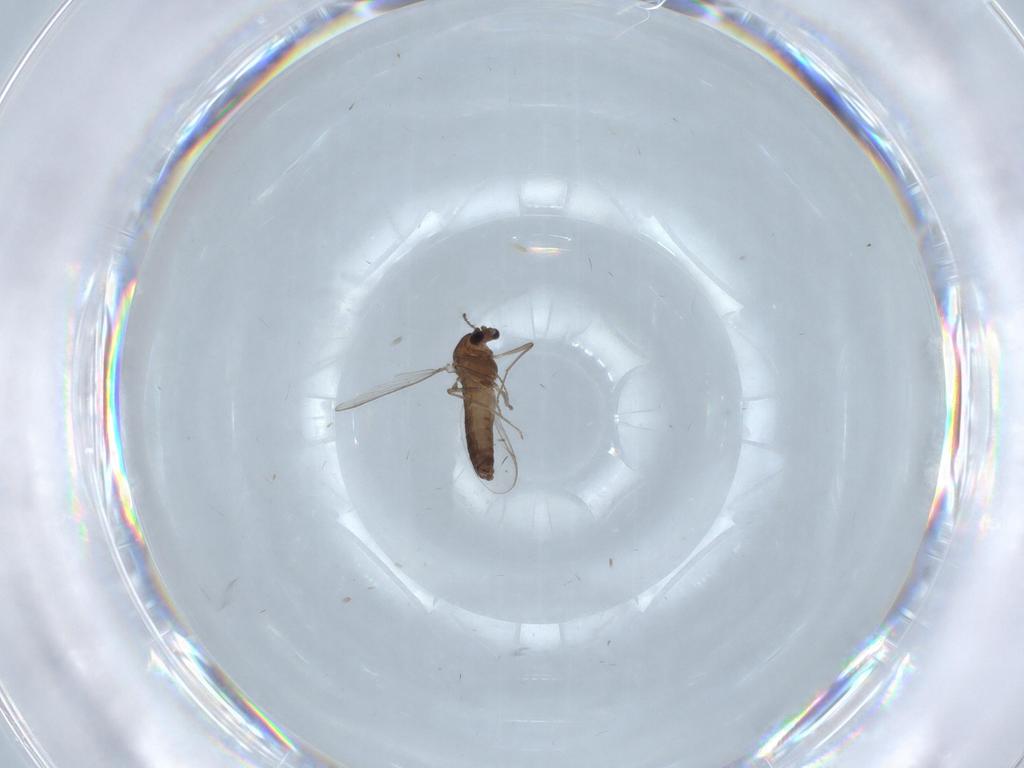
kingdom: Animalia
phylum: Arthropoda
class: Insecta
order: Diptera
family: Chironomidae
